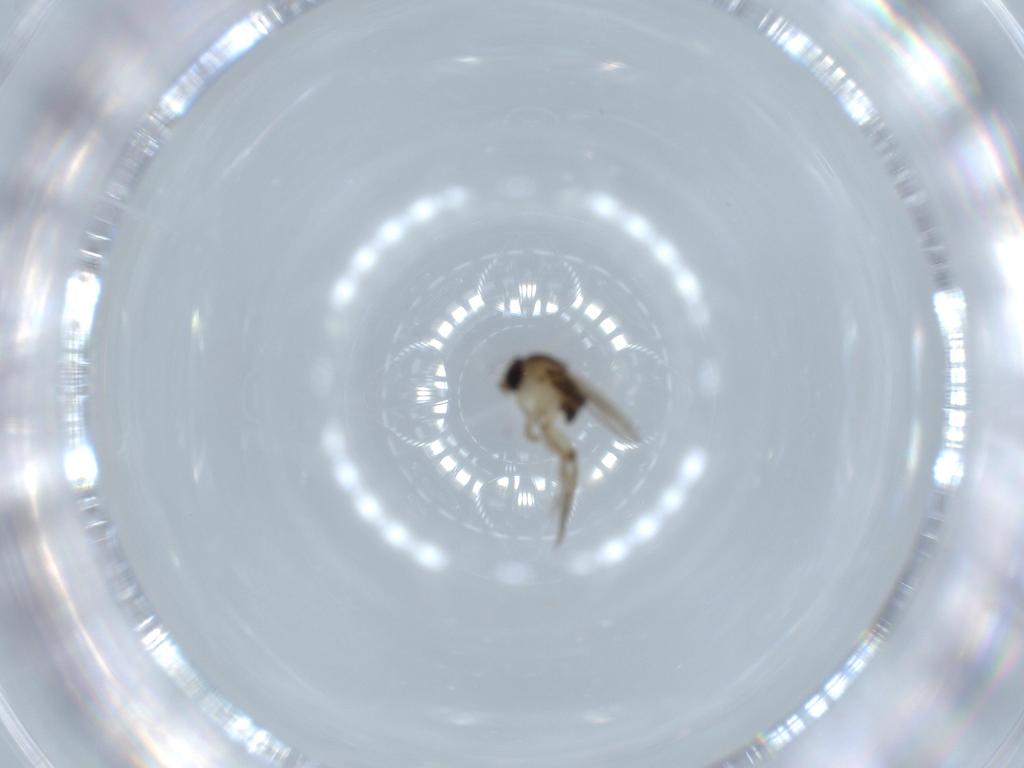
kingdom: Animalia
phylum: Arthropoda
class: Insecta
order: Diptera
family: Phoridae
